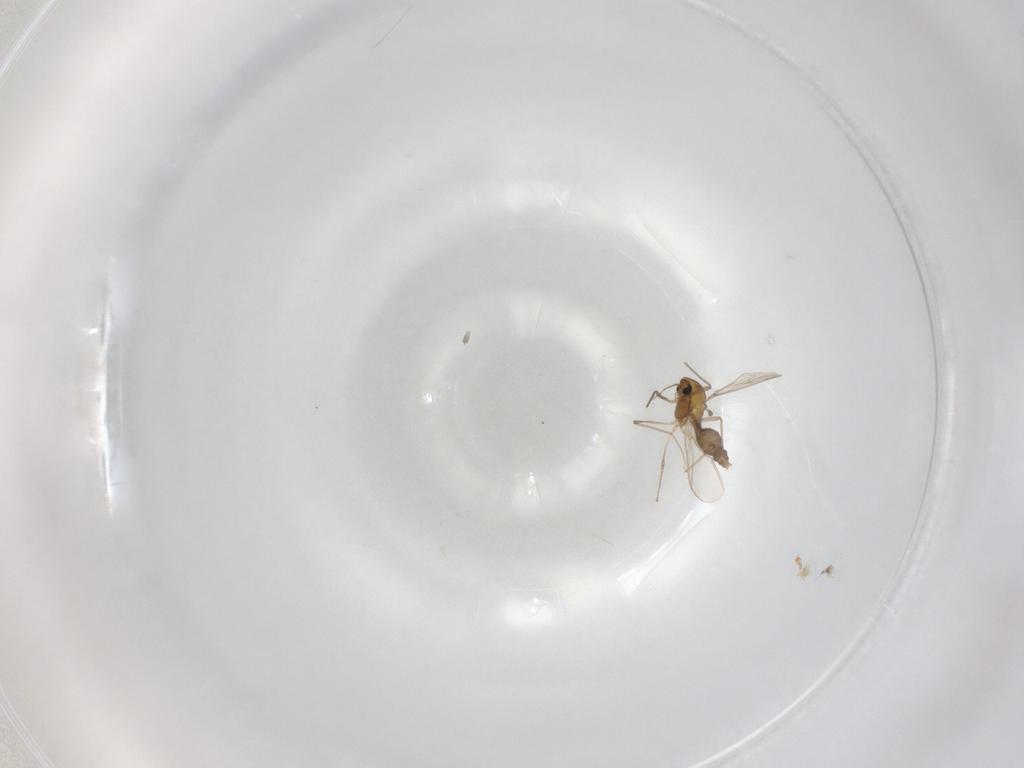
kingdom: Animalia
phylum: Arthropoda
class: Insecta
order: Diptera
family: Chironomidae
